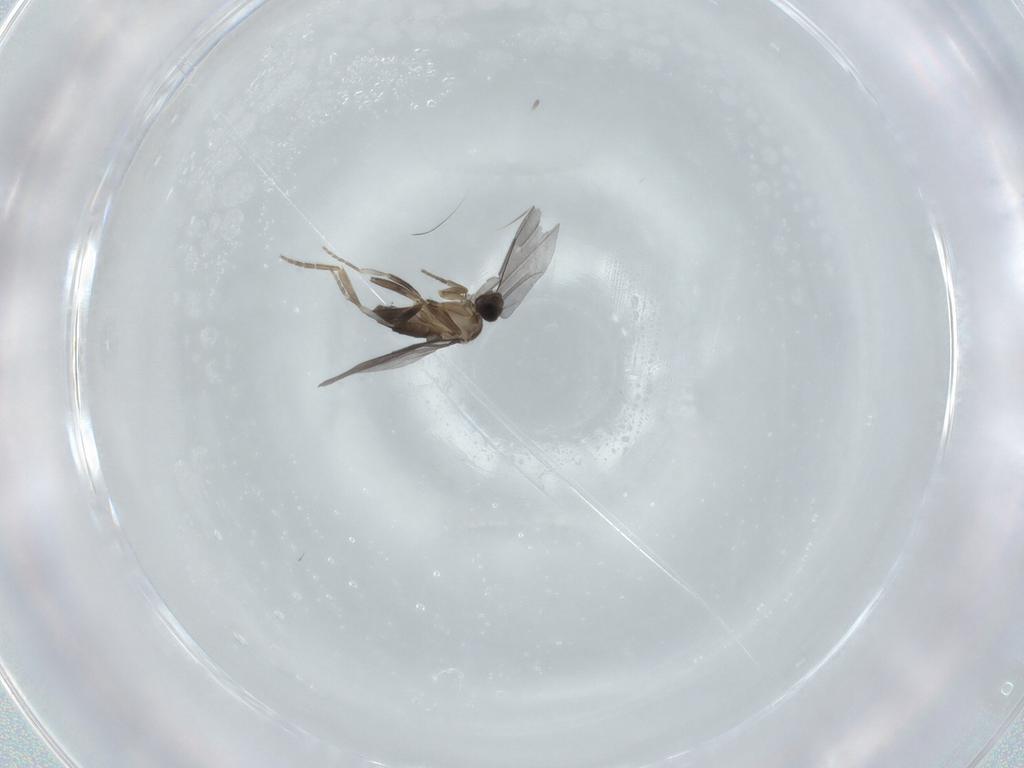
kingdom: Animalia
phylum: Arthropoda
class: Insecta
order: Diptera
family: Phoridae
